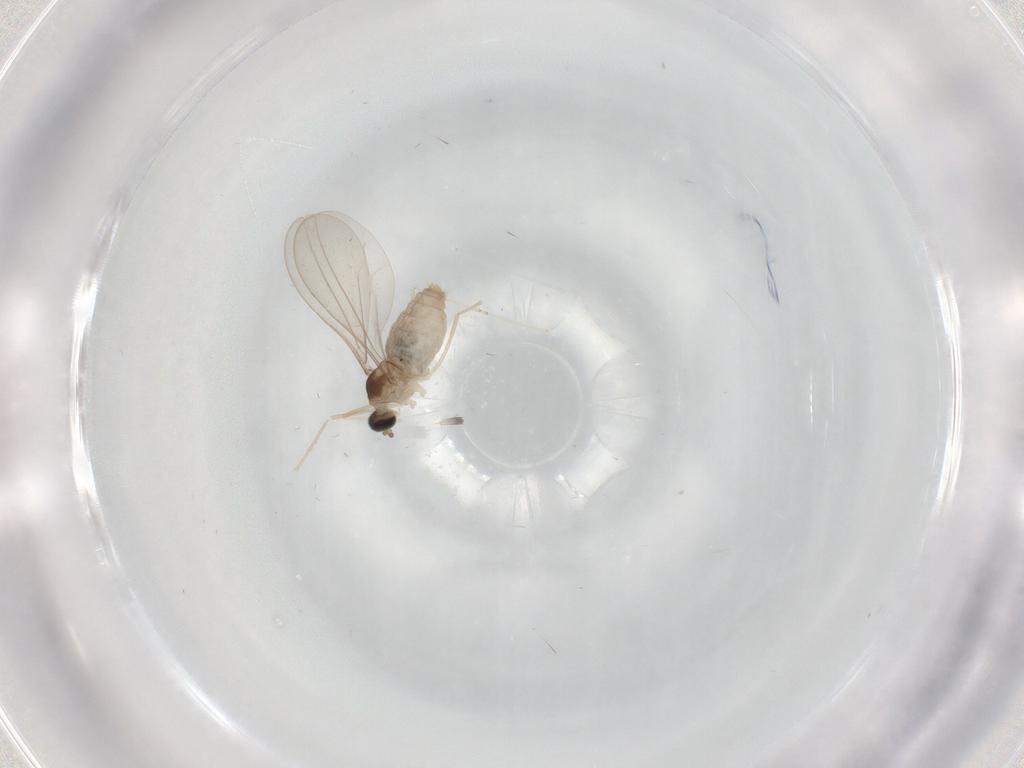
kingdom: Animalia
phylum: Arthropoda
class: Insecta
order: Diptera
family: Cecidomyiidae
